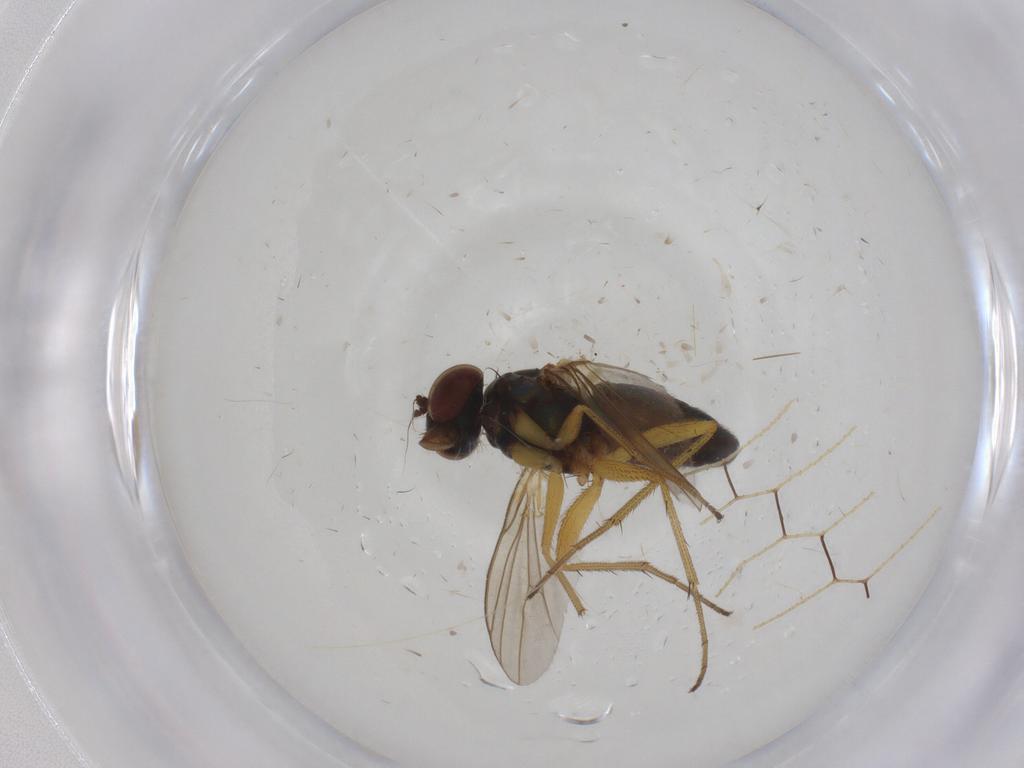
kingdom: Animalia
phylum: Arthropoda
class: Insecta
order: Diptera
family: Dolichopodidae
